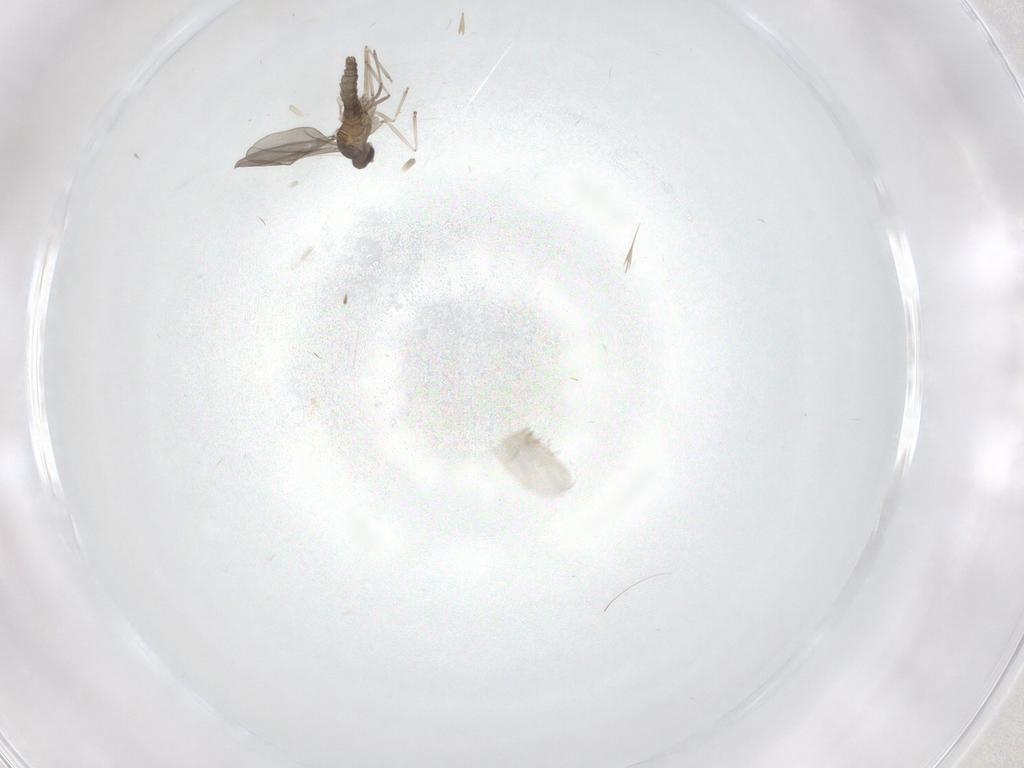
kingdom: Animalia
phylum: Arthropoda
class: Insecta
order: Diptera
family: Cecidomyiidae
